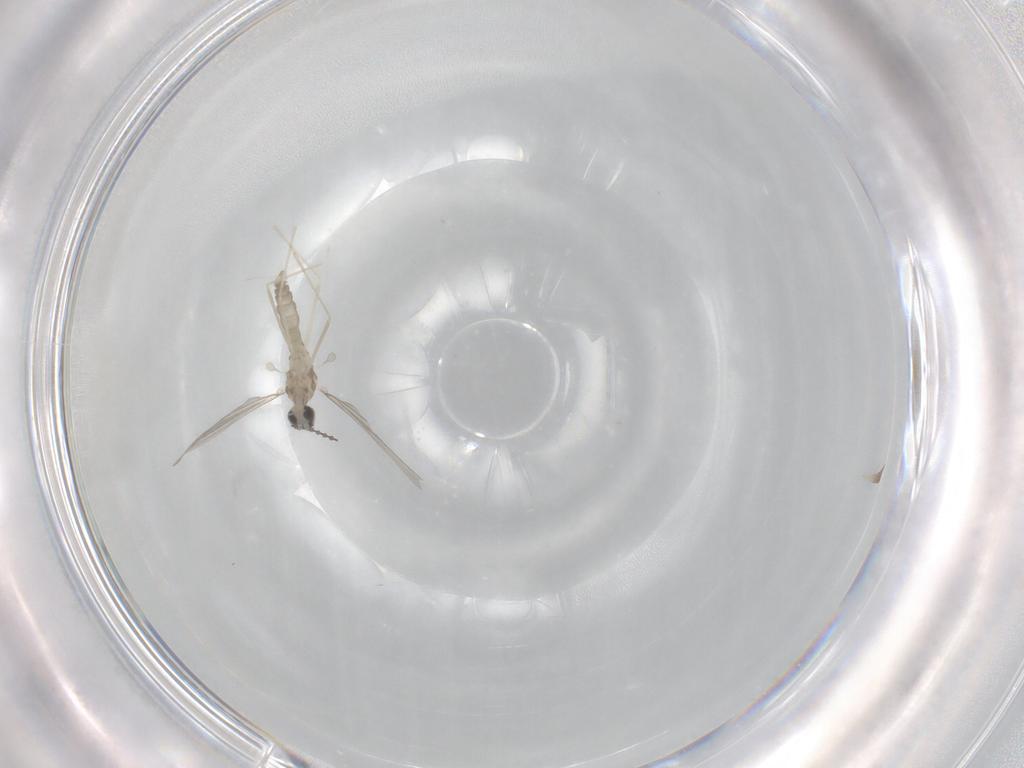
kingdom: Animalia
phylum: Arthropoda
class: Insecta
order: Diptera
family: Cecidomyiidae
